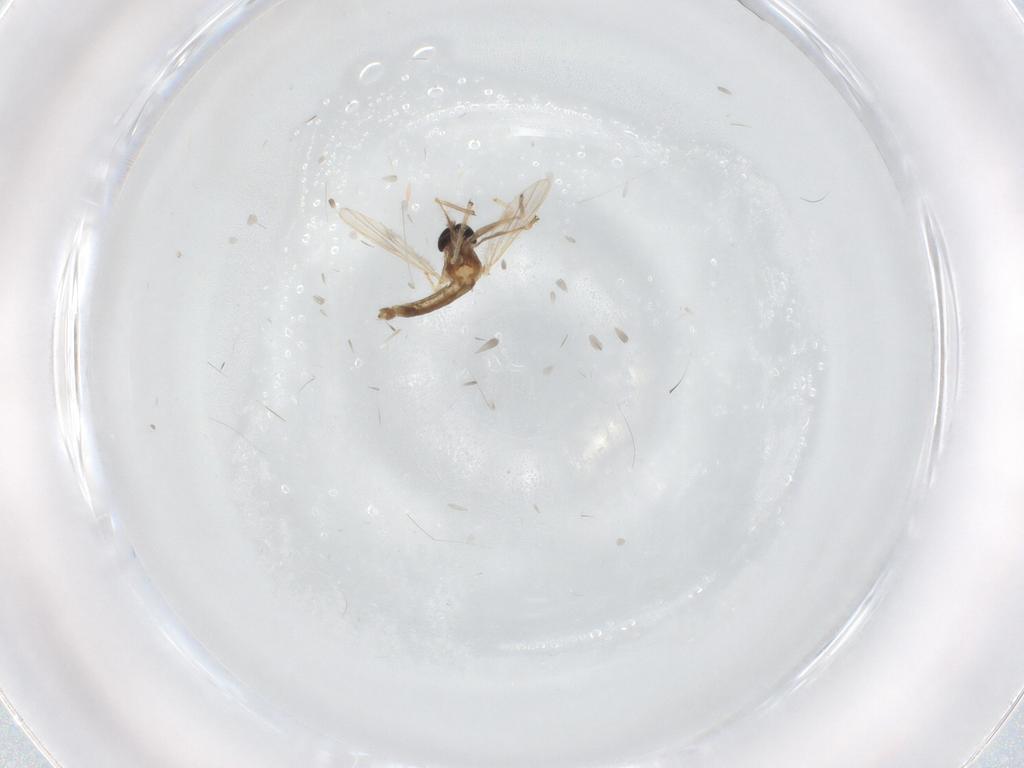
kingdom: Animalia
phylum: Arthropoda
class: Insecta
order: Diptera
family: Chironomidae
